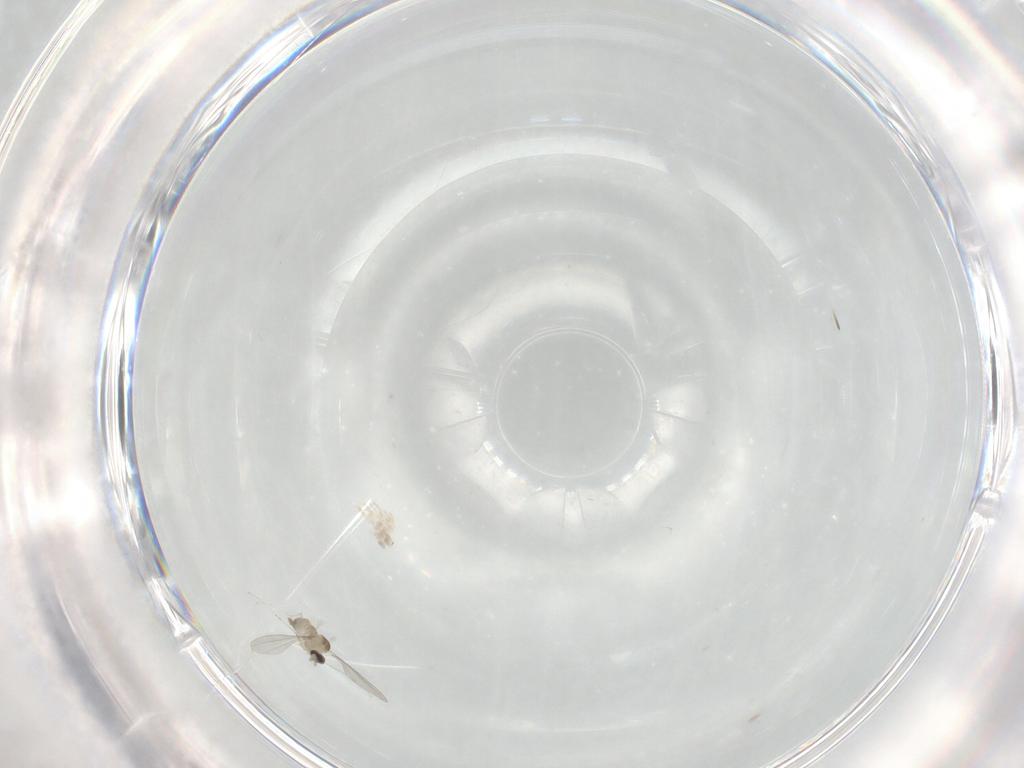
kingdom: Animalia
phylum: Arthropoda
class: Insecta
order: Diptera
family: Cecidomyiidae
